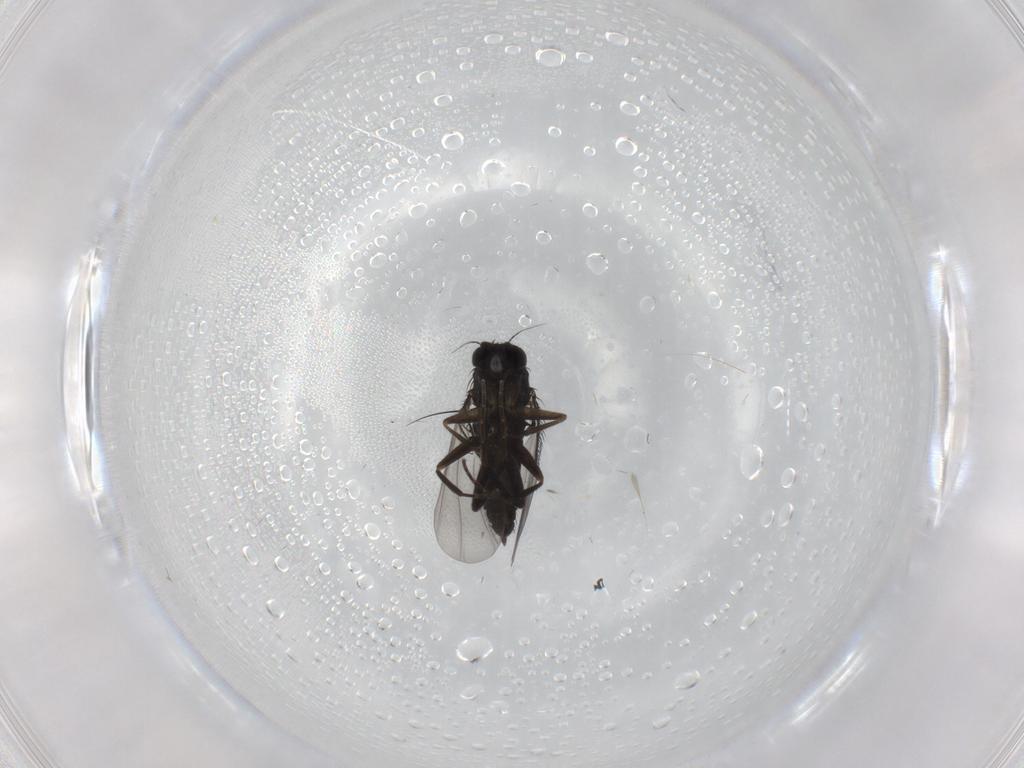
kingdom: Animalia
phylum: Arthropoda
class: Insecta
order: Diptera
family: Phoridae
